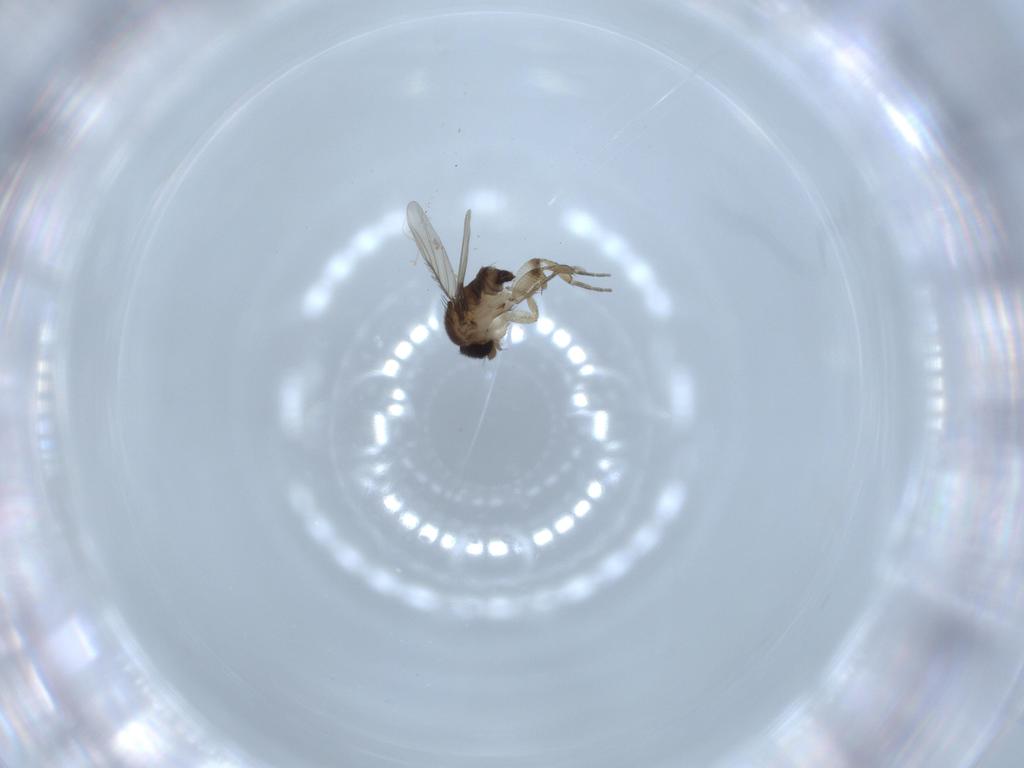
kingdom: Animalia
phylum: Arthropoda
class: Insecta
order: Diptera
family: Phoridae
